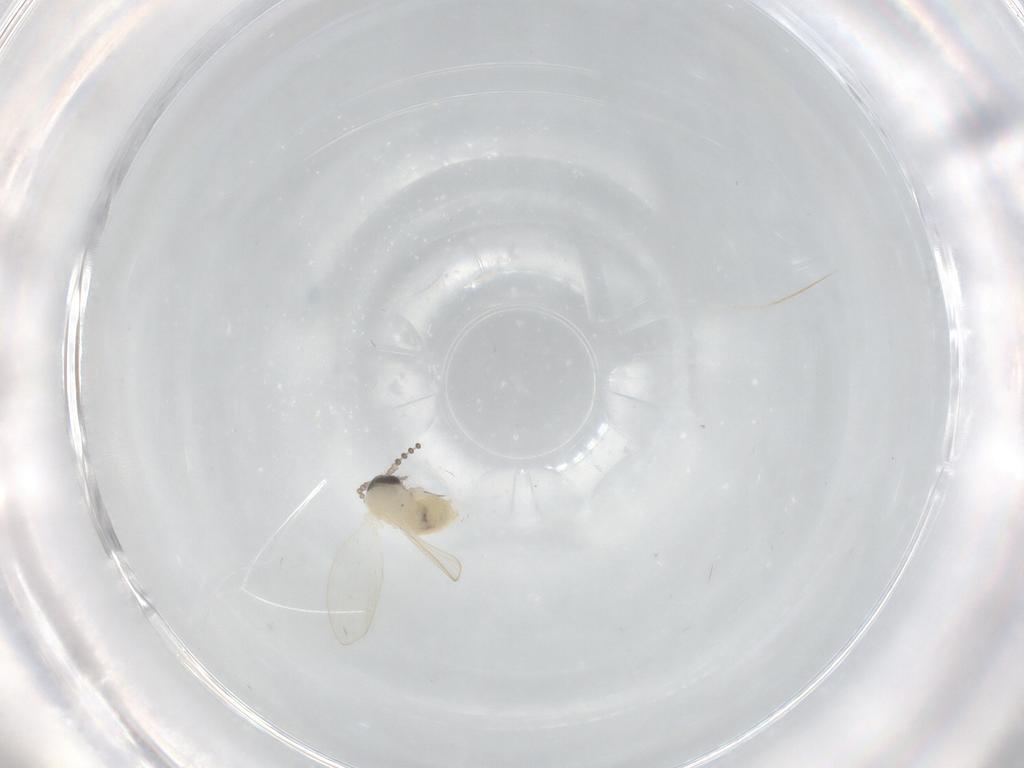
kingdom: Animalia
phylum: Arthropoda
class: Insecta
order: Diptera
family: Psychodidae
